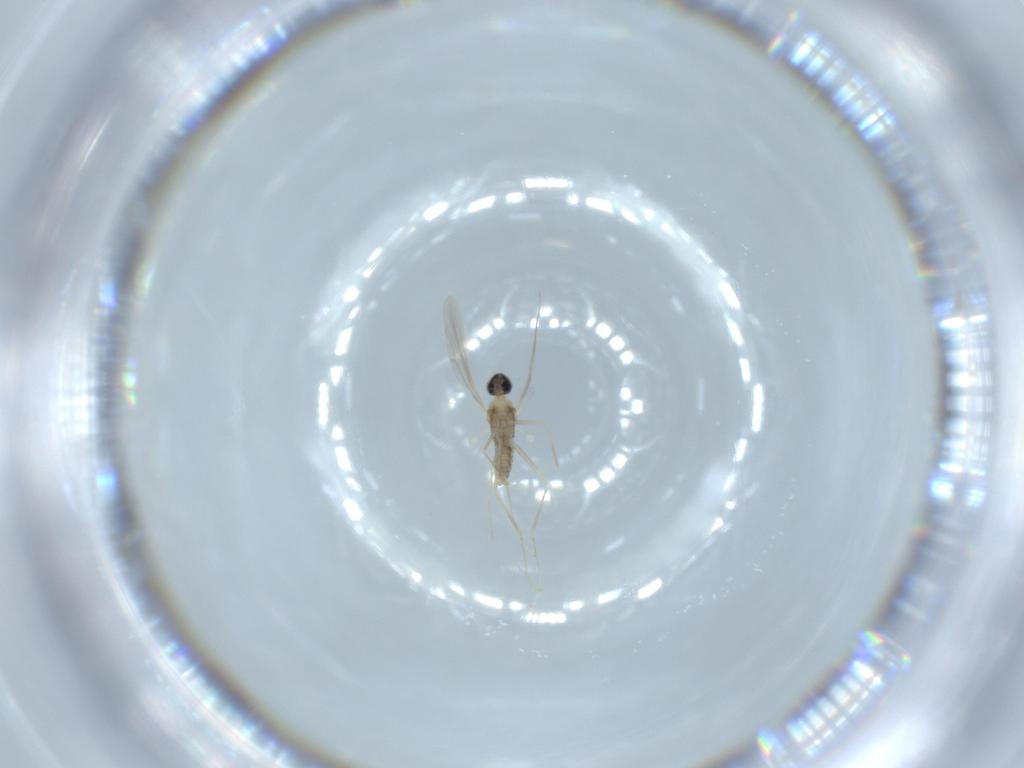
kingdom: Animalia
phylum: Arthropoda
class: Insecta
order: Diptera
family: Cecidomyiidae
